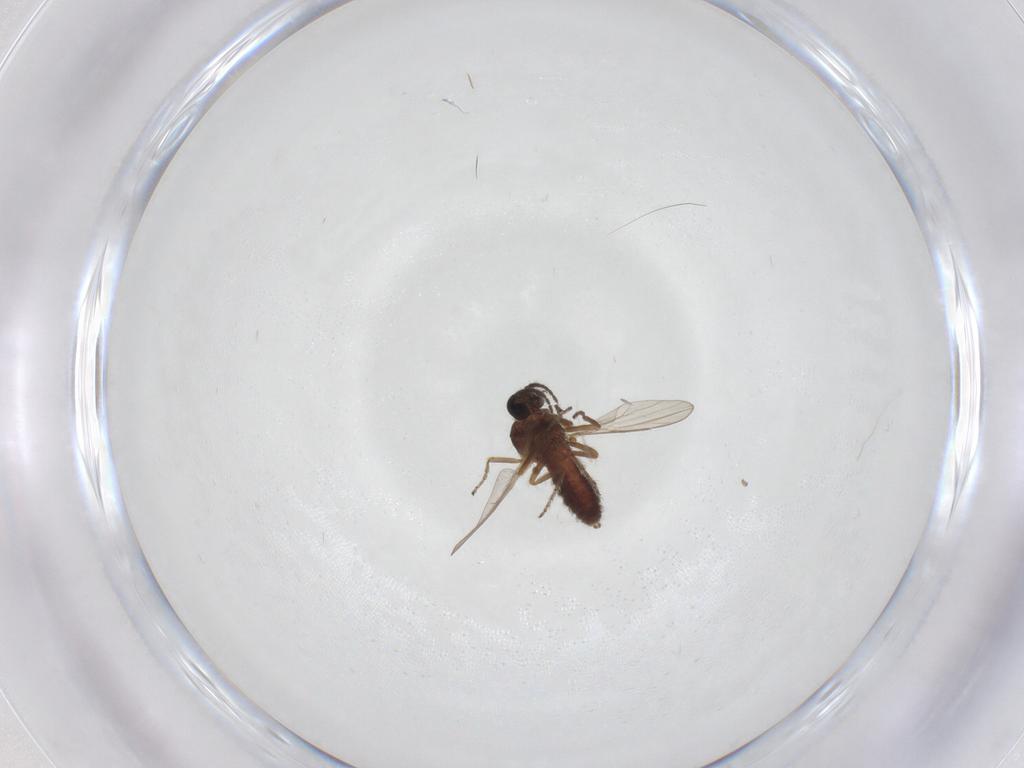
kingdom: Animalia
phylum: Arthropoda
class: Insecta
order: Diptera
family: Ceratopogonidae
